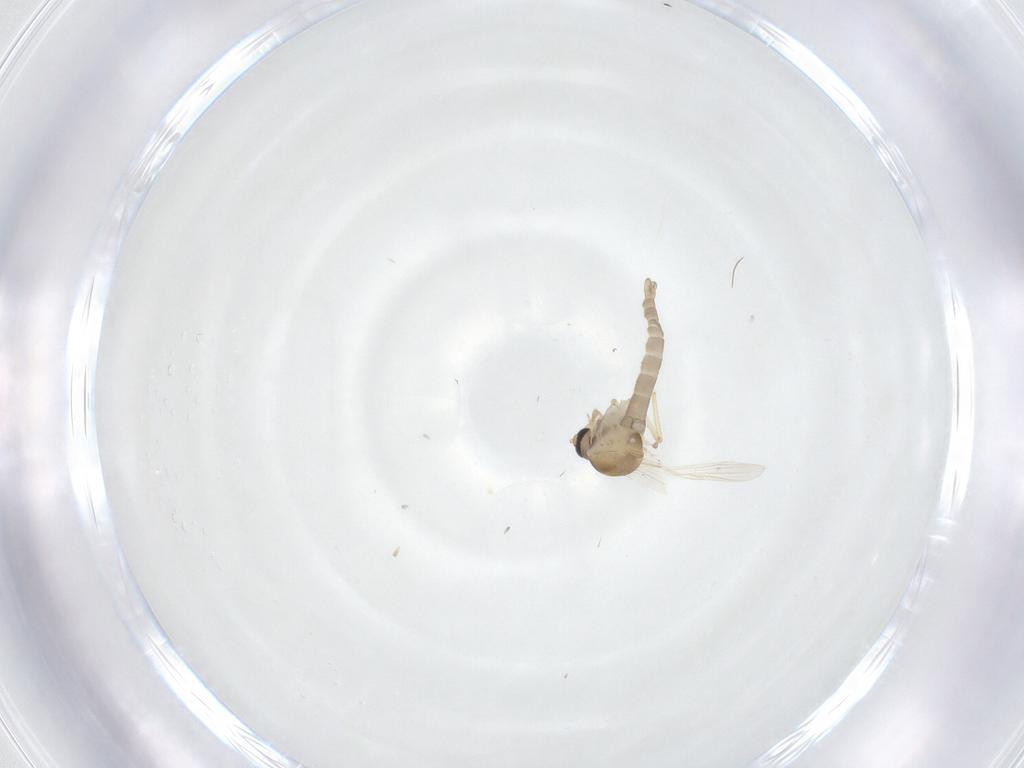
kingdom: Animalia
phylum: Arthropoda
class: Insecta
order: Diptera
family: Ceratopogonidae
